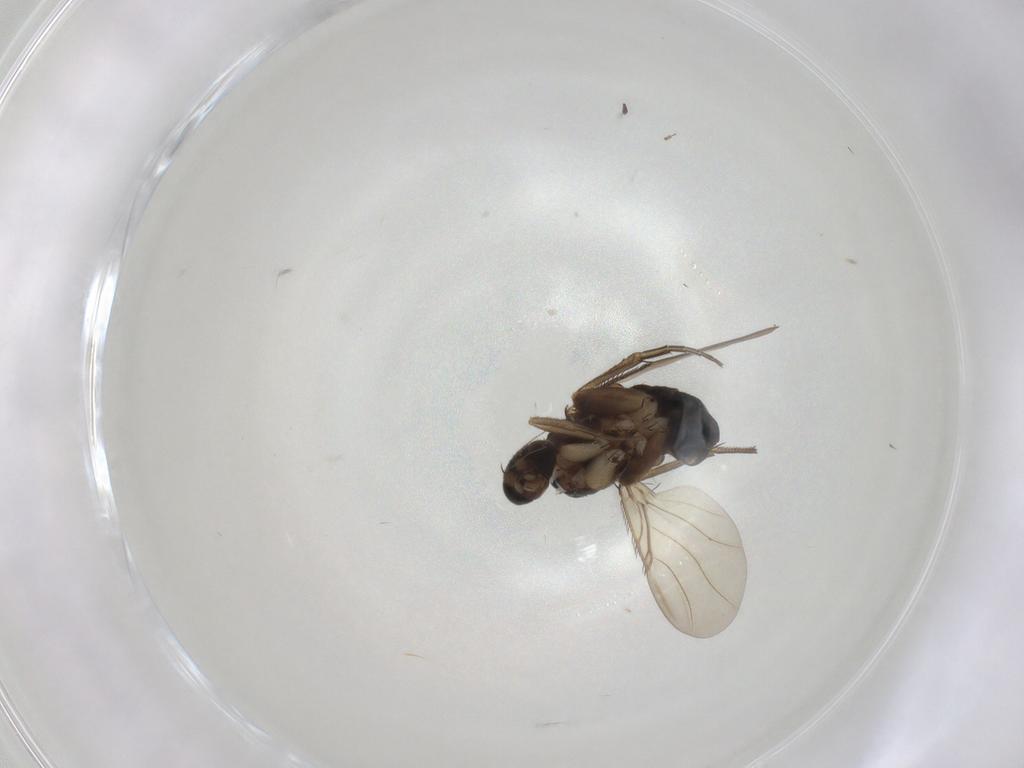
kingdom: Animalia
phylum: Arthropoda
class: Insecta
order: Diptera
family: Phoridae
